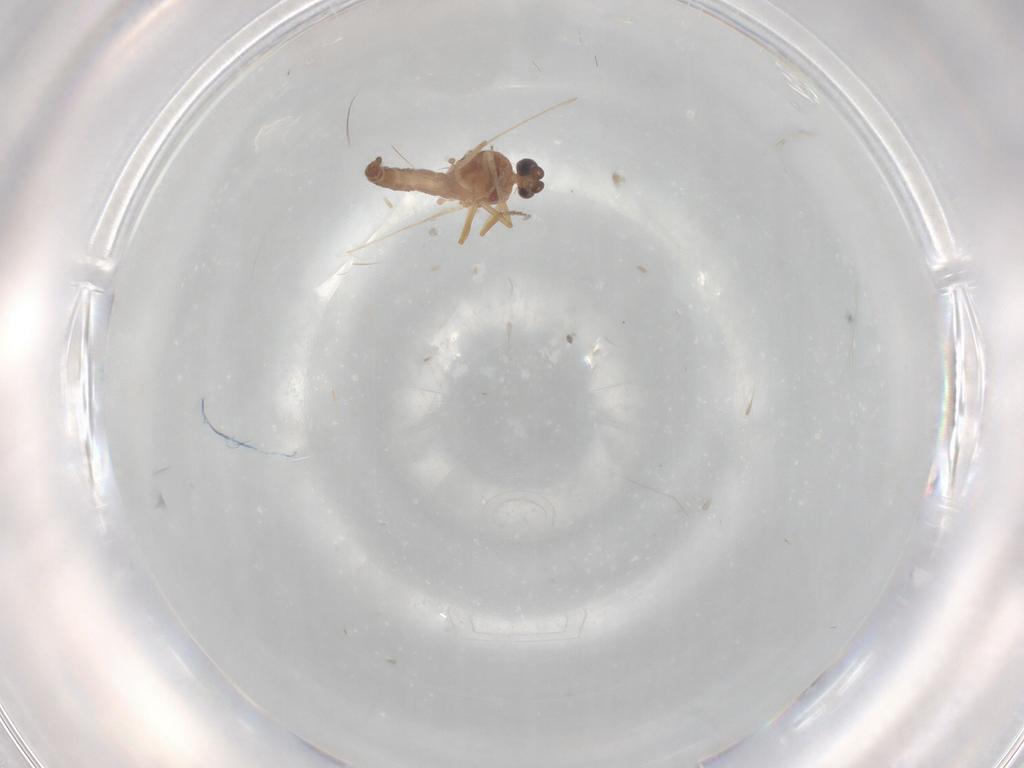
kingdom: Animalia
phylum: Arthropoda
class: Insecta
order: Diptera
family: Ceratopogonidae
